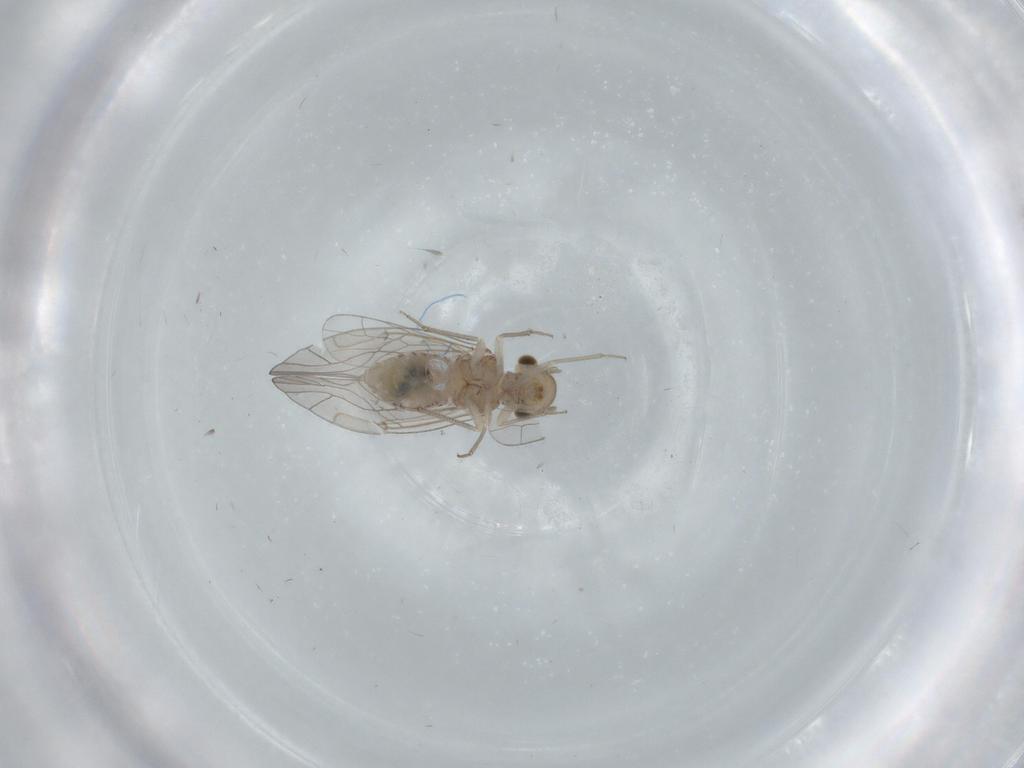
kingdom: Animalia
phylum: Arthropoda
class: Insecta
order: Psocodea
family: Lachesillidae
